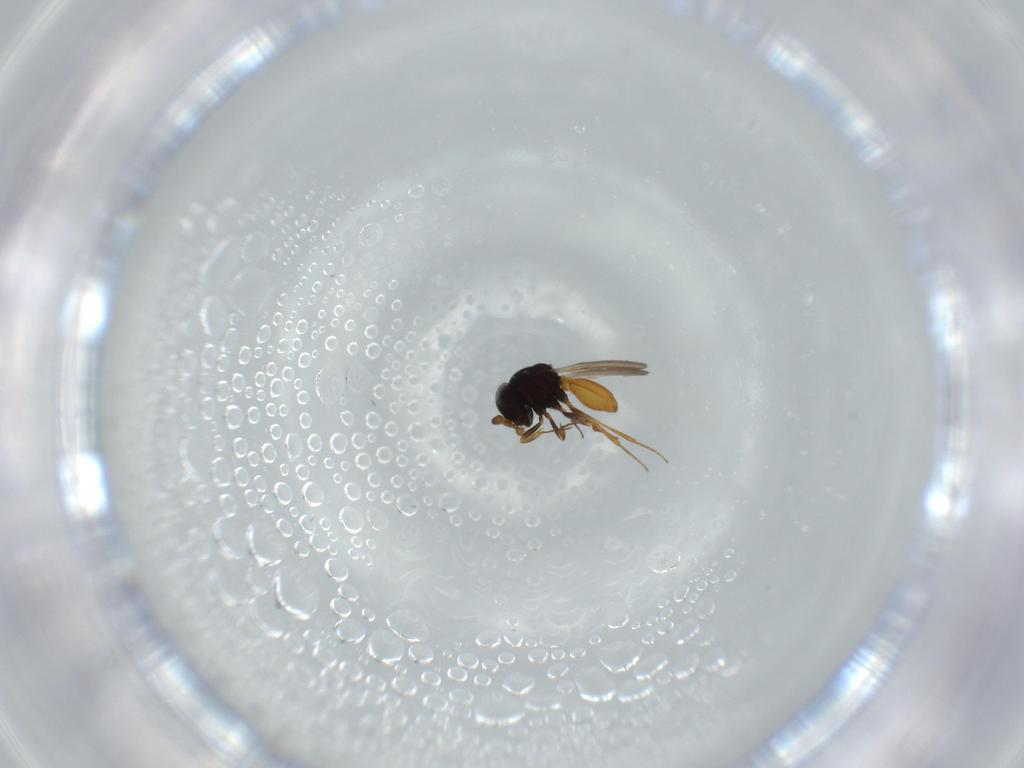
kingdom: Animalia
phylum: Arthropoda
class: Insecta
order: Hymenoptera
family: Scelionidae
